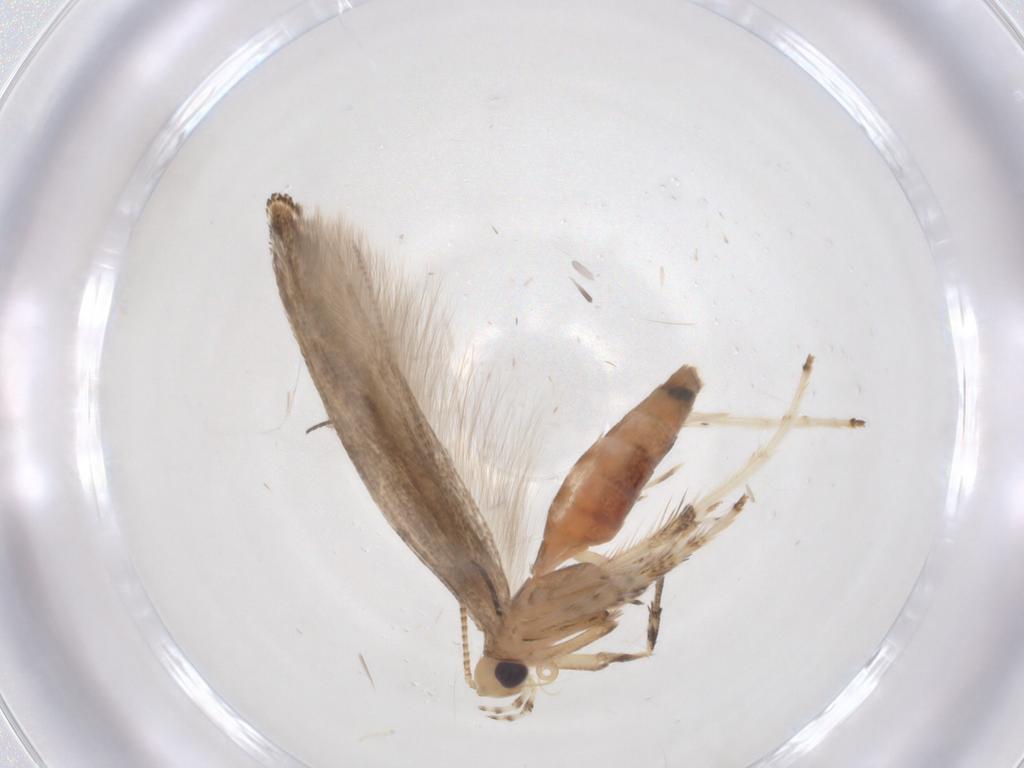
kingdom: Animalia
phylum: Arthropoda
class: Insecta
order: Lepidoptera
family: Gracillariidae
